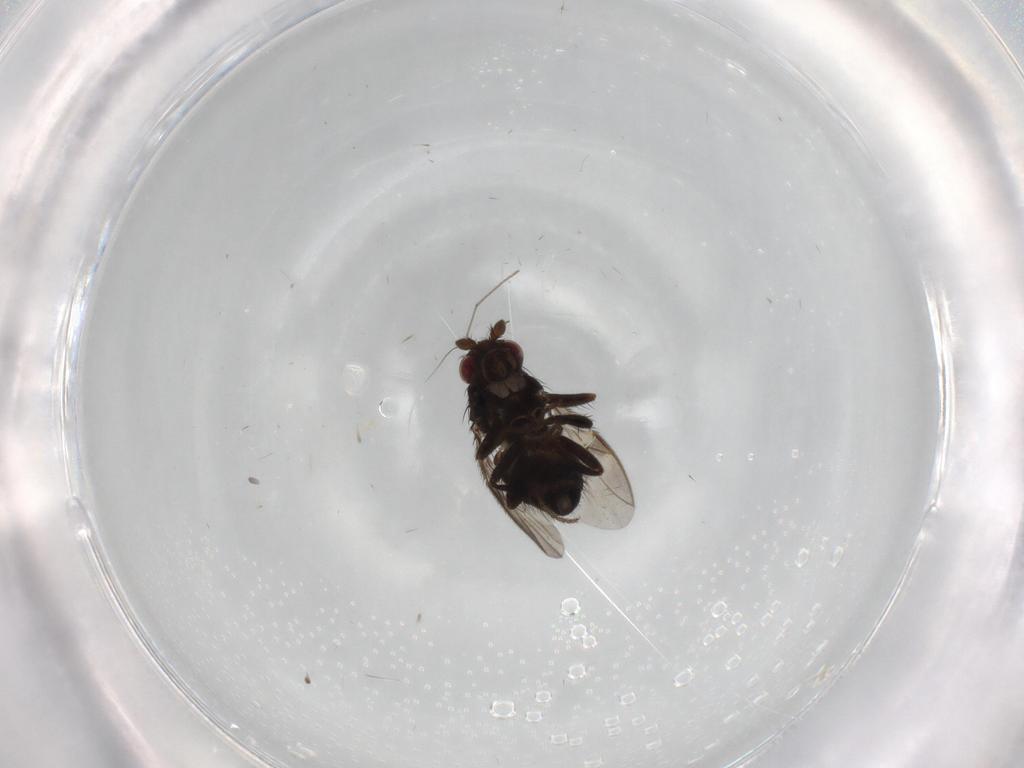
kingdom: Animalia
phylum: Arthropoda
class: Insecta
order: Diptera
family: Sphaeroceridae
